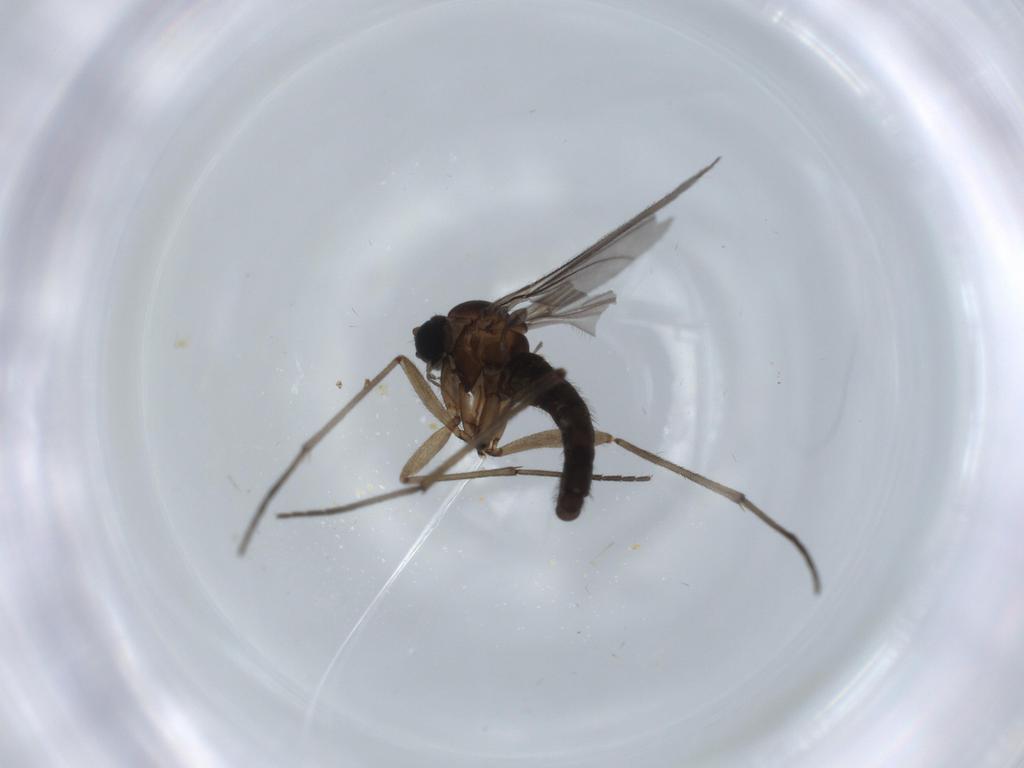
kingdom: Animalia
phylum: Arthropoda
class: Insecta
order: Diptera
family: Sciaridae
